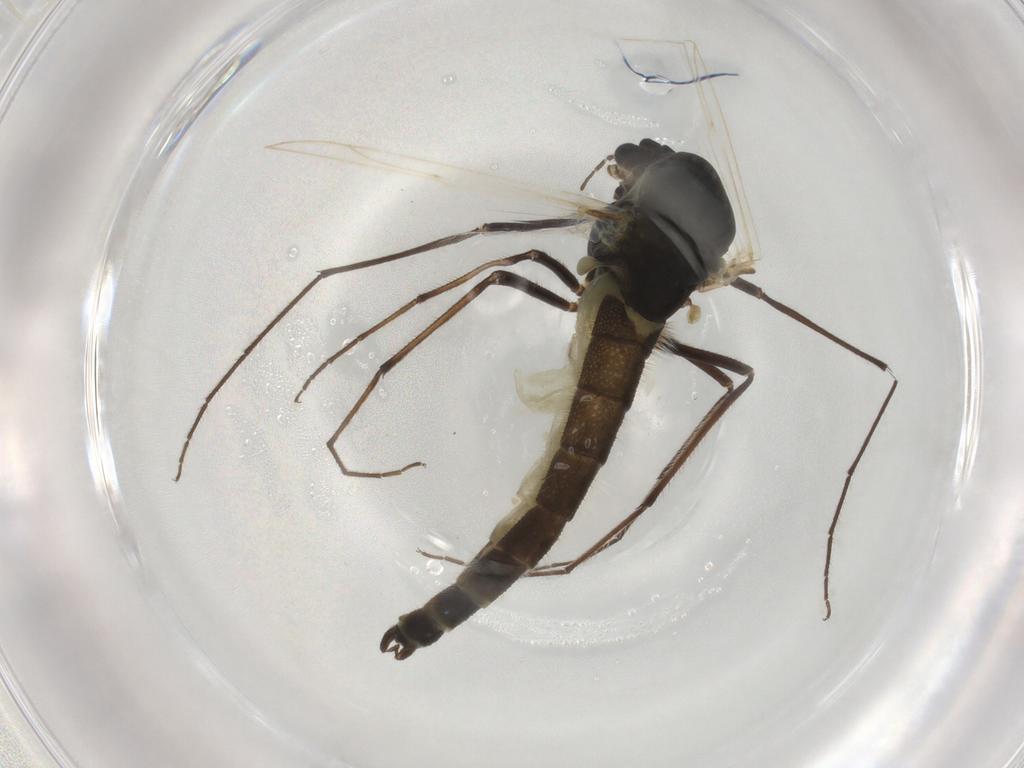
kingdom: Animalia
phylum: Arthropoda
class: Insecta
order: Diptera
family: Chironomidae
